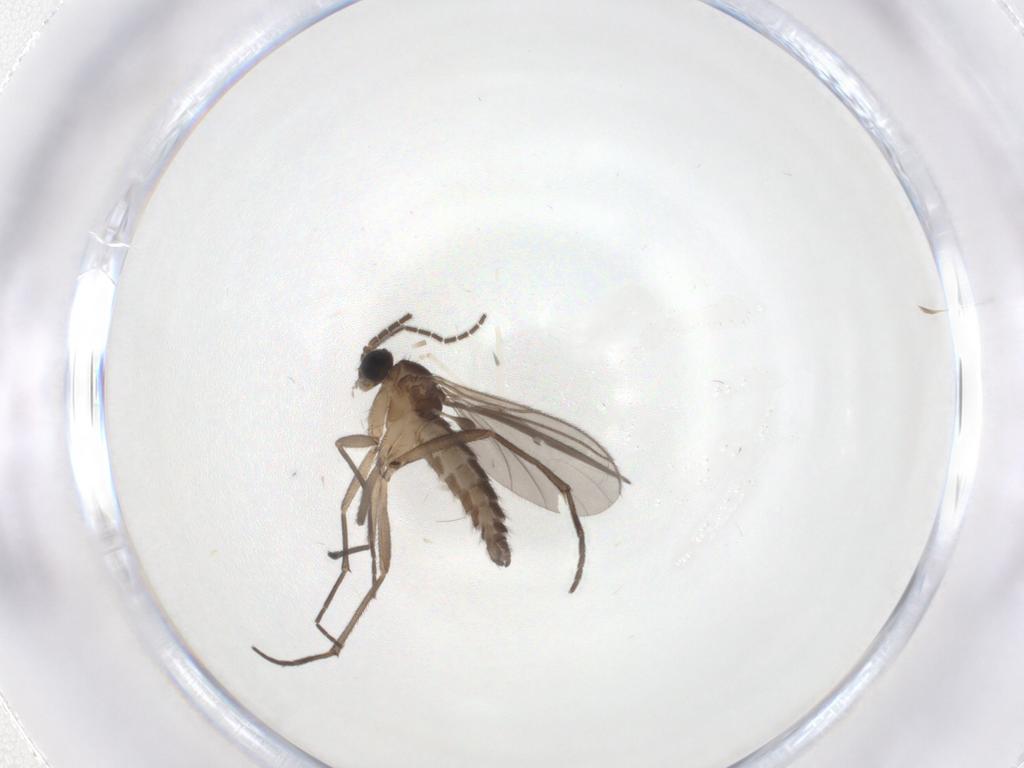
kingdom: Animalia
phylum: Arthropoda
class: Insecta
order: Diptera
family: Sciaridae
